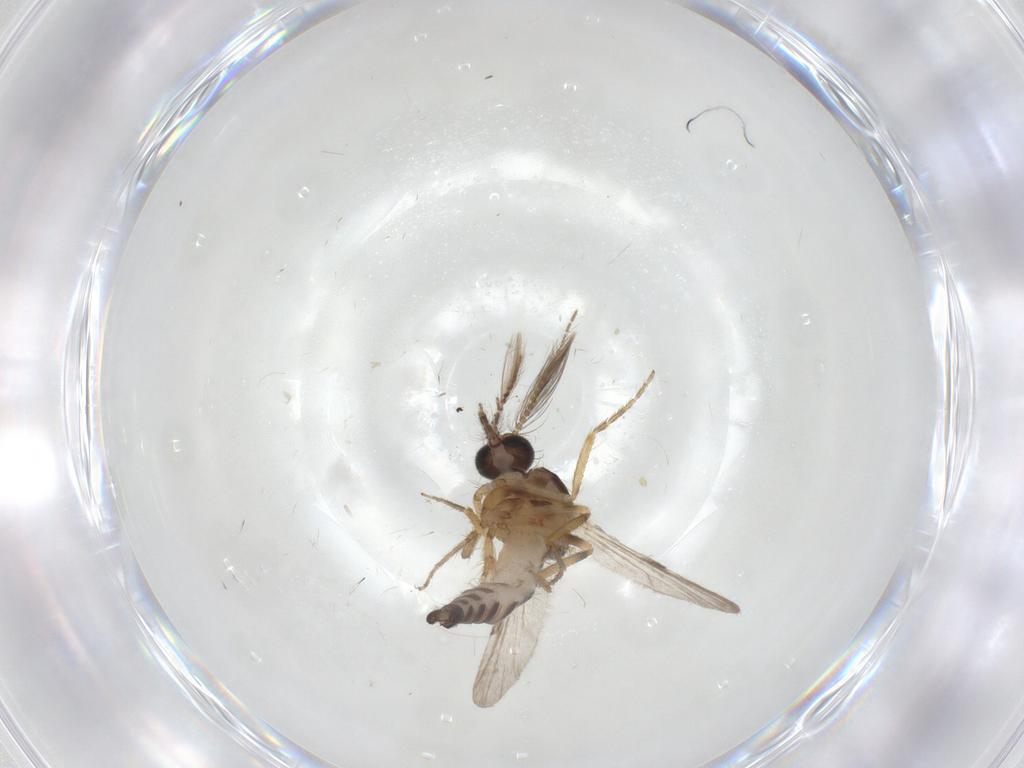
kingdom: Animalia
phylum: Arthropoda
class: Insecta
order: Diptera
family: Ceratopogonidae
